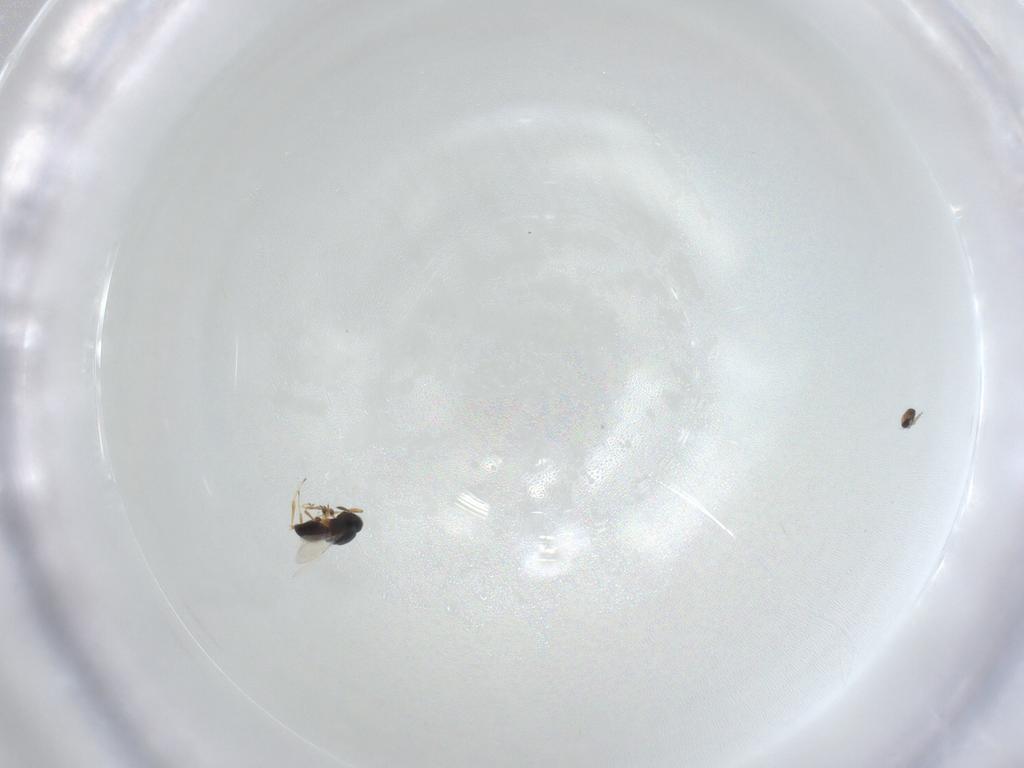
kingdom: Animalia
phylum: Arthropoda
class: Insecta
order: Diptera
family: Cecidomyiidae
